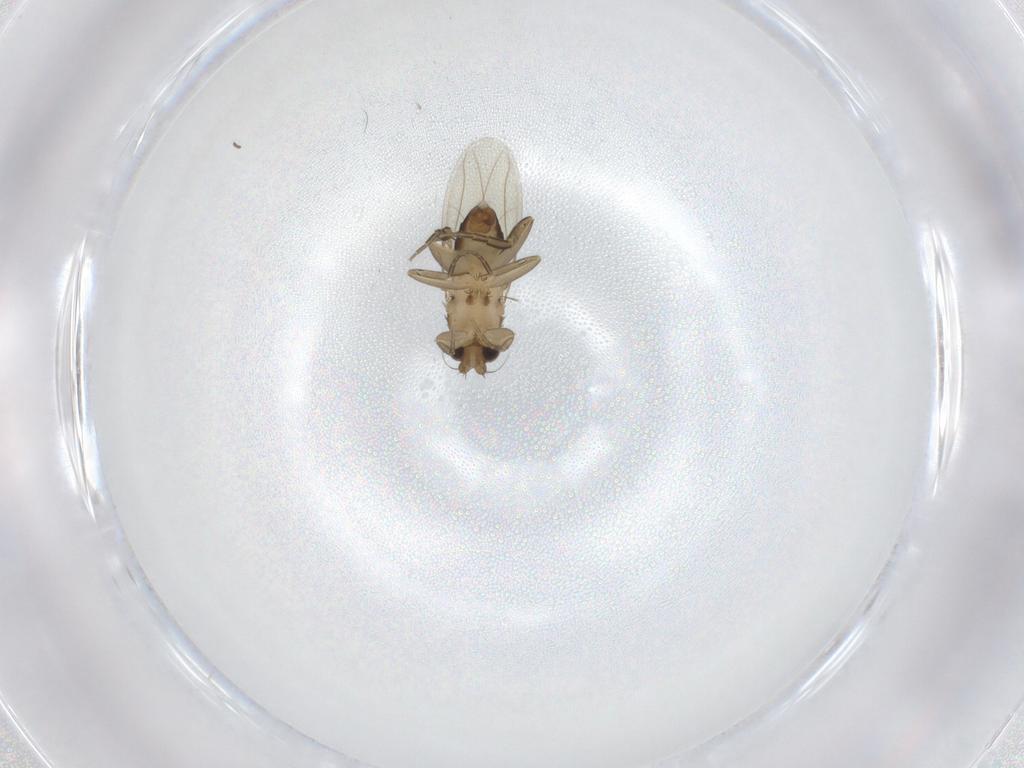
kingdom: Animalia
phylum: Arthropoda
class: Insecta
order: Diptera
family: Phoridae
